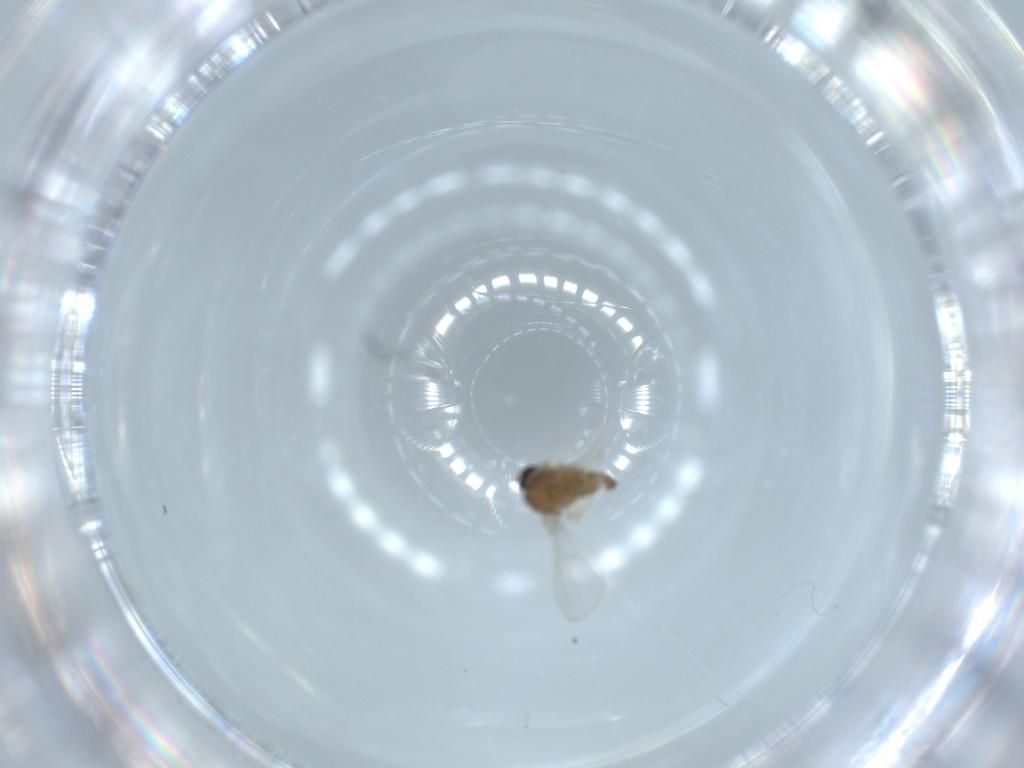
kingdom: Animalia
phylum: Arthropoda
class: Insecta
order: Diptera
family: Cecidomyiidae
